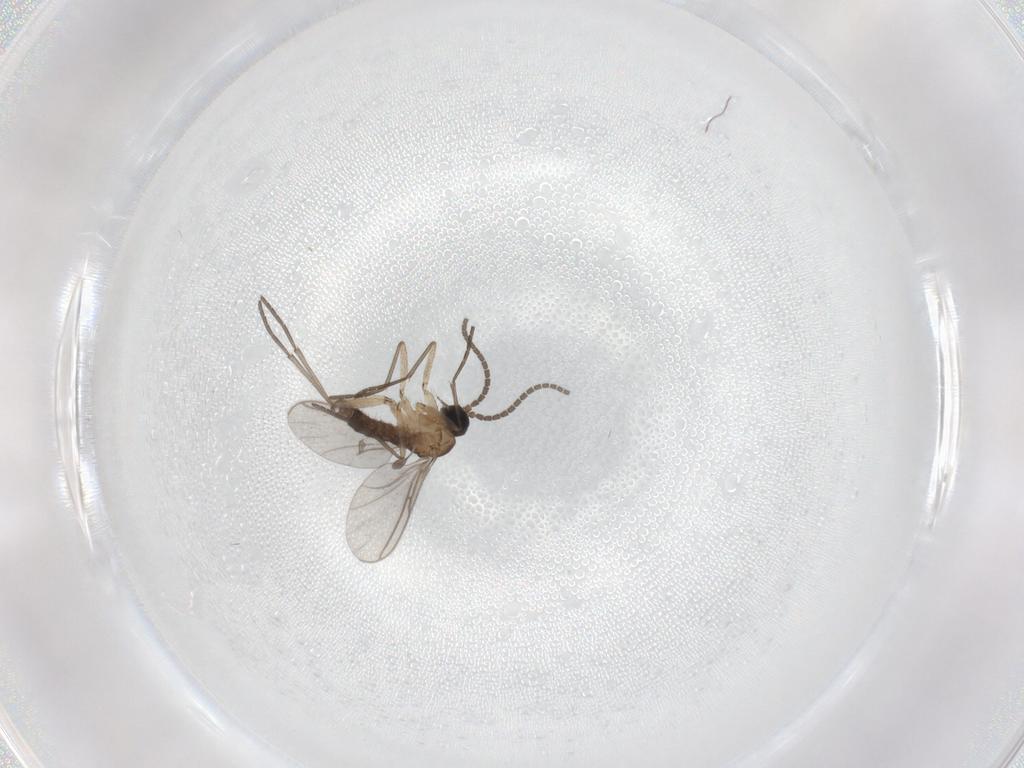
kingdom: Animalia
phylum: Arthropoda
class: Insecta
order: Diptera
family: Sciaridae
